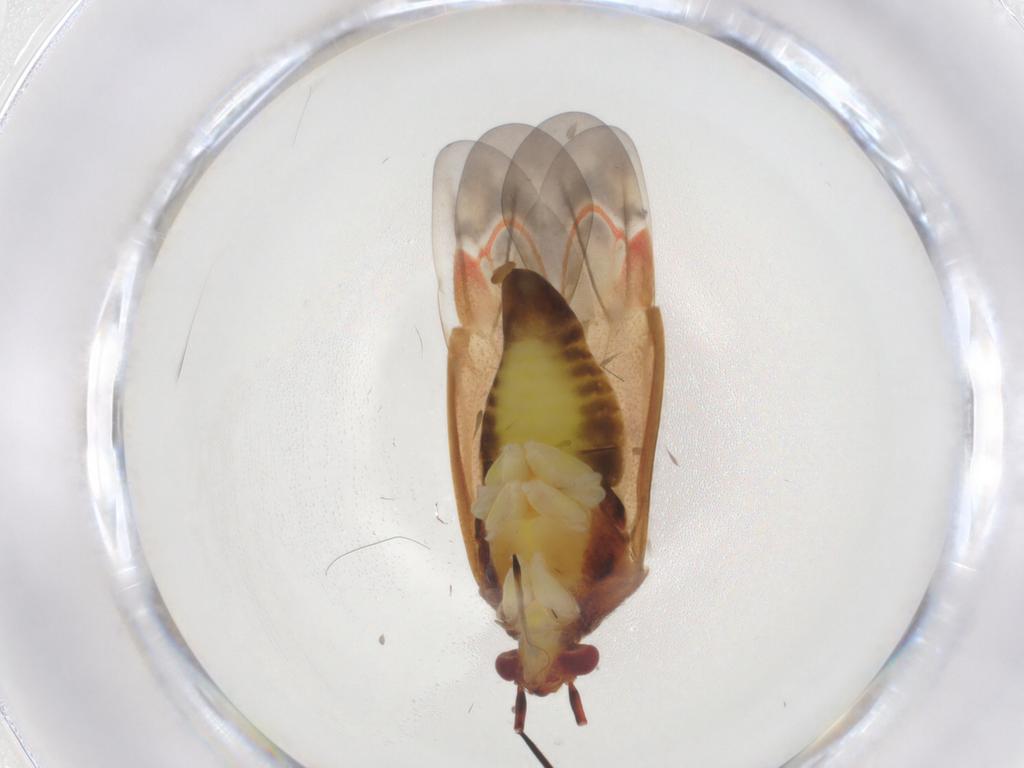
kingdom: Animalia
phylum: Arthropoda
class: Insecta
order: Hemiptera
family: Miridae
